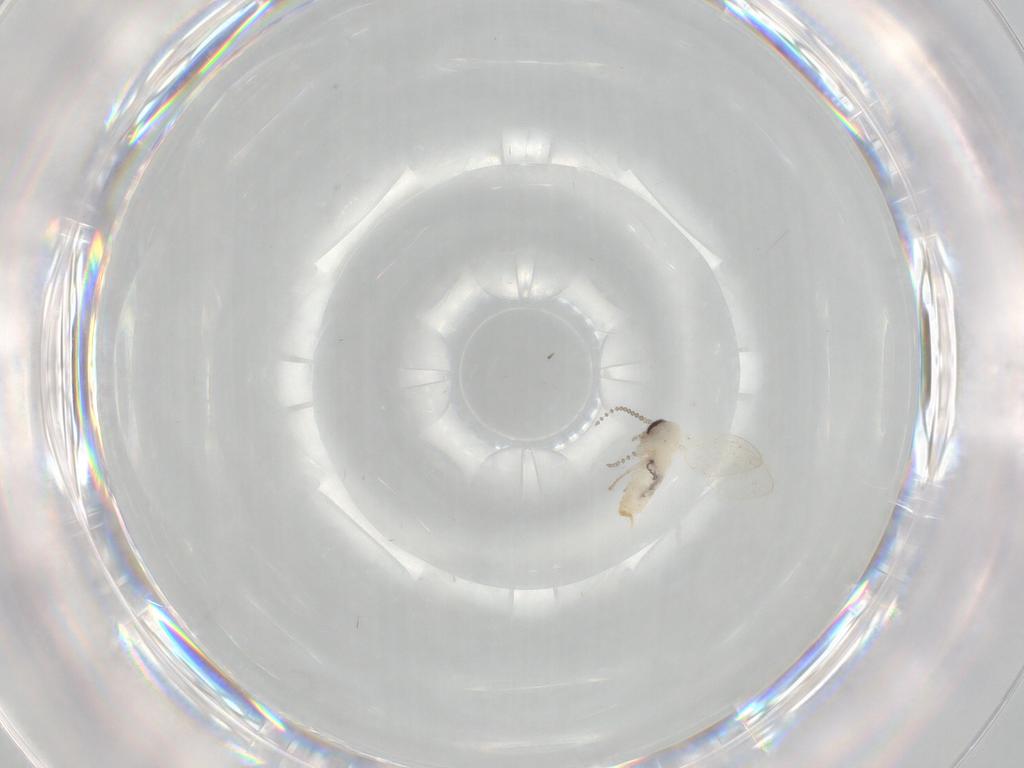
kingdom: Animalia
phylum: Arthropoda
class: Insecta
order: Diptera
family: Psychodidae
